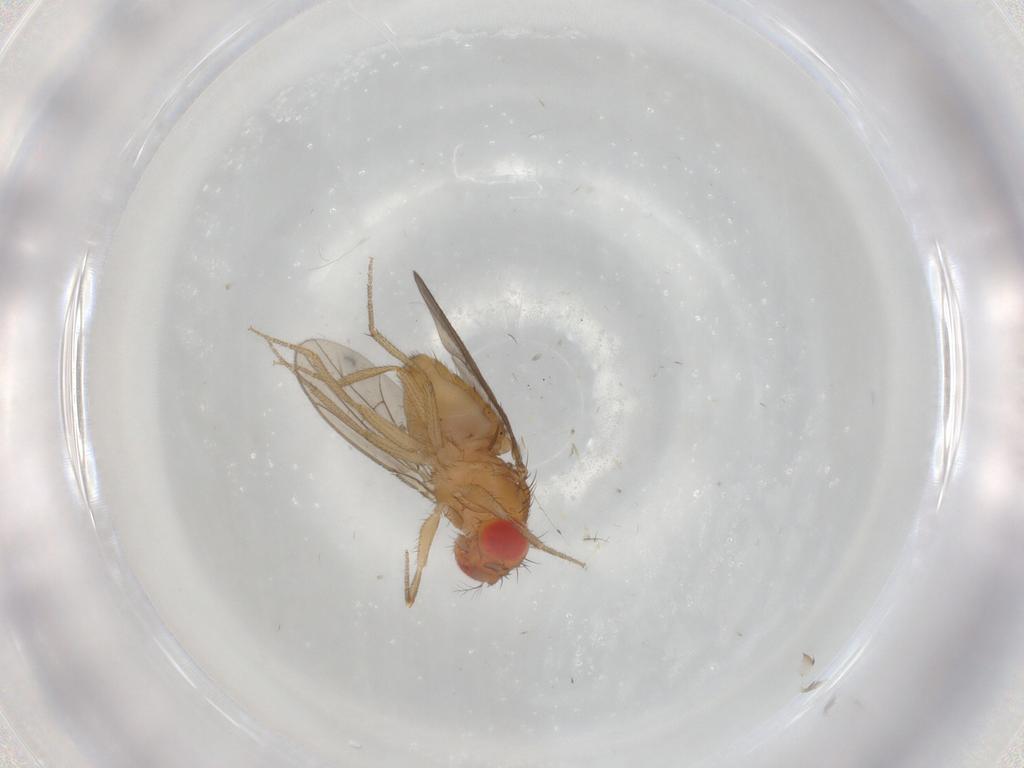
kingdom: Animalia
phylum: Arthropoda
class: Insecta
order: Diptera
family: Drosophilidae
